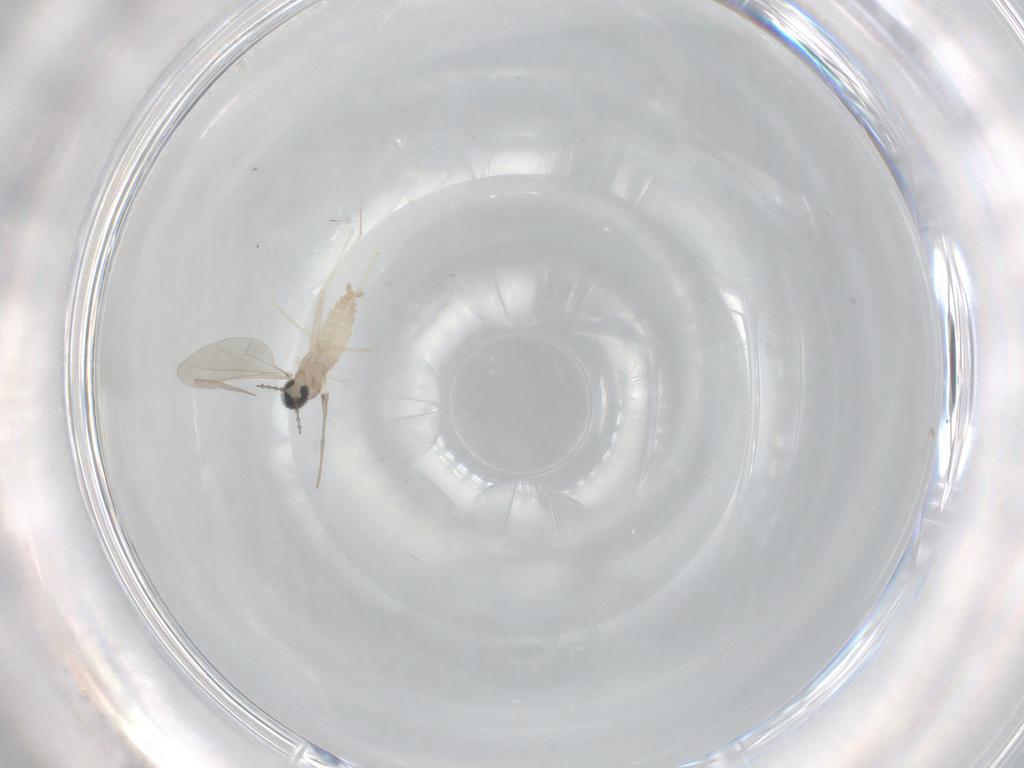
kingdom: Animalia
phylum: Arthropoda
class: Insecta
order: Diptera
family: Cecidomyiidae
